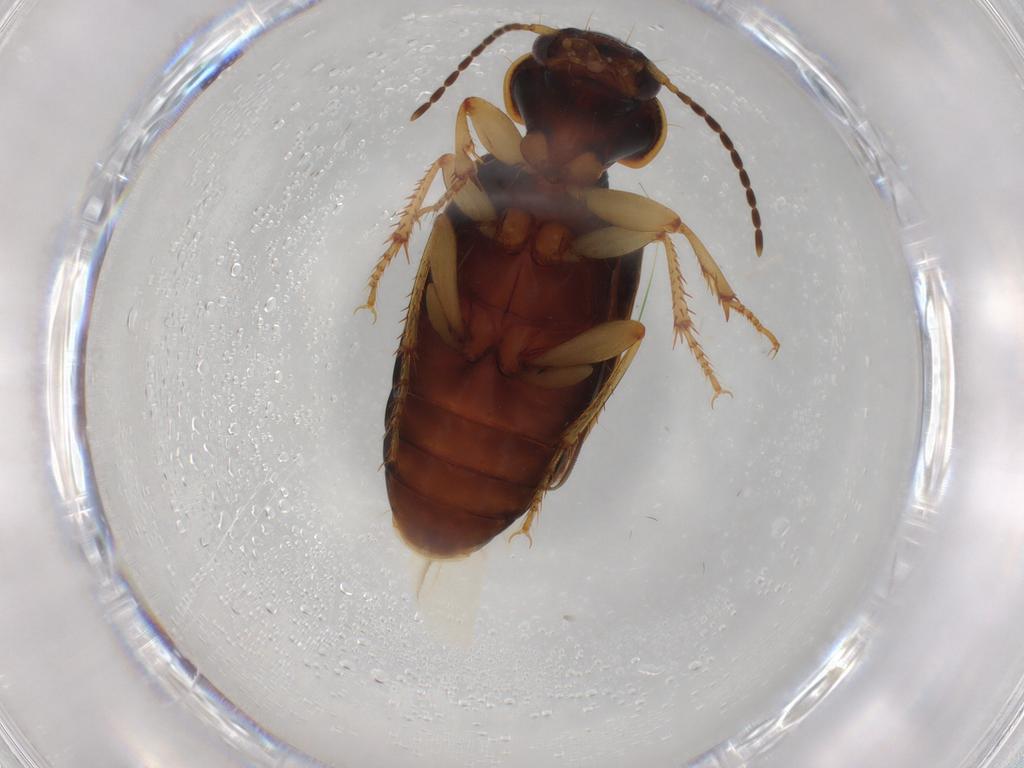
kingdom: Animalia
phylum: Arthropoda
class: Insecta
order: Coleoptera
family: Carabidae
